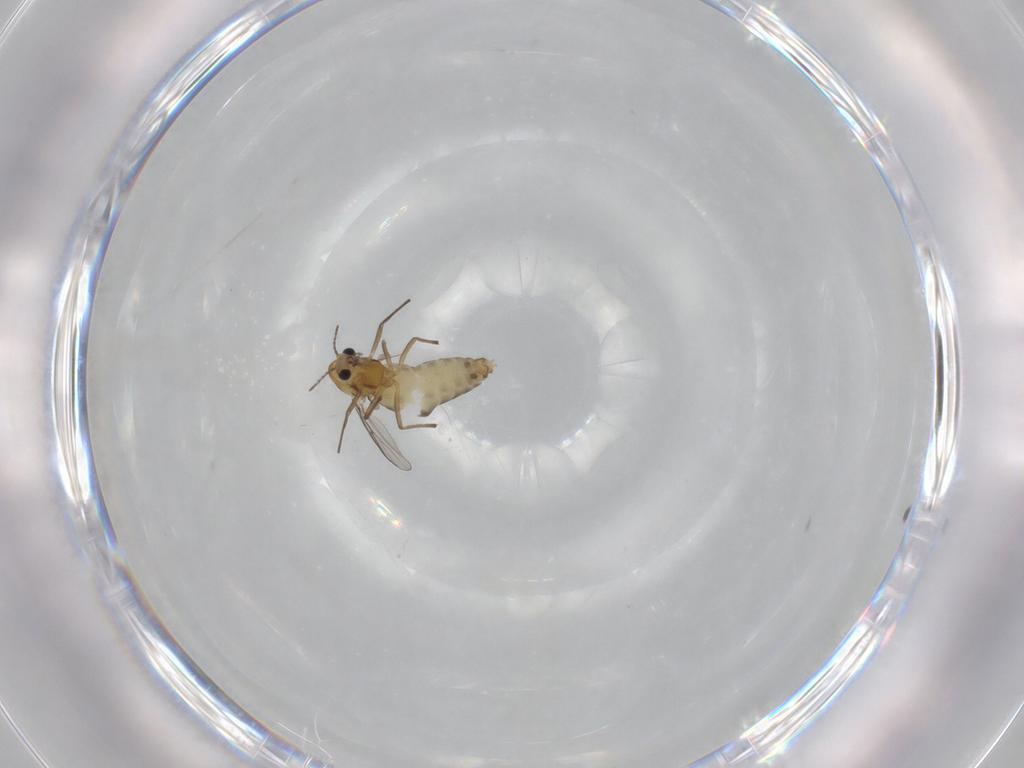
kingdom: Animalia
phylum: Arthropoda
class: Insecta
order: Diptera
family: Chironomidae
